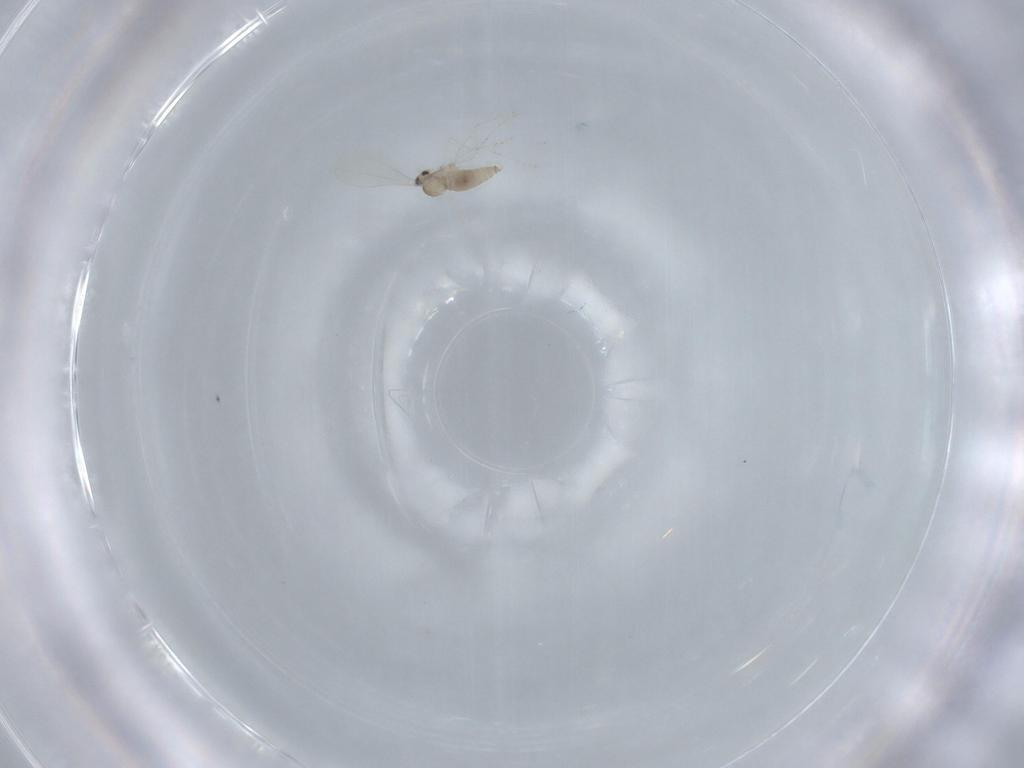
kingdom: Animalia
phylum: Arthropoda
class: Insecta
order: Diptera
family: Cecidomyiidae
